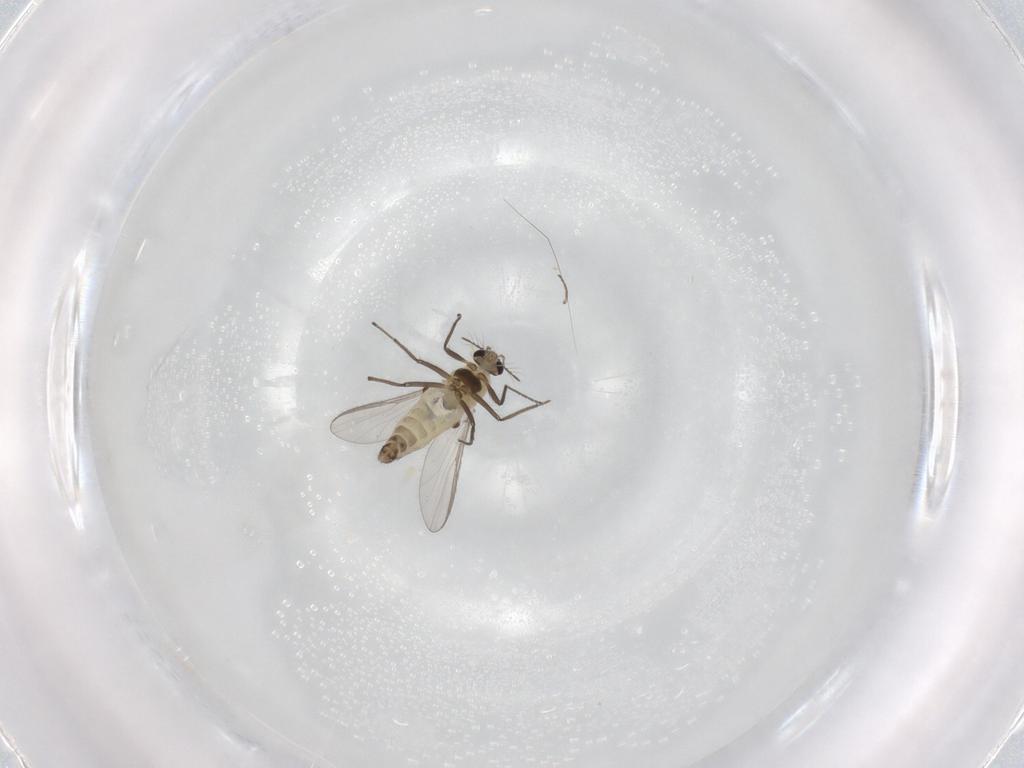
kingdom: Animalia
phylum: Arthropoda
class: Insecta
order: Diptera
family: Chironomidae
